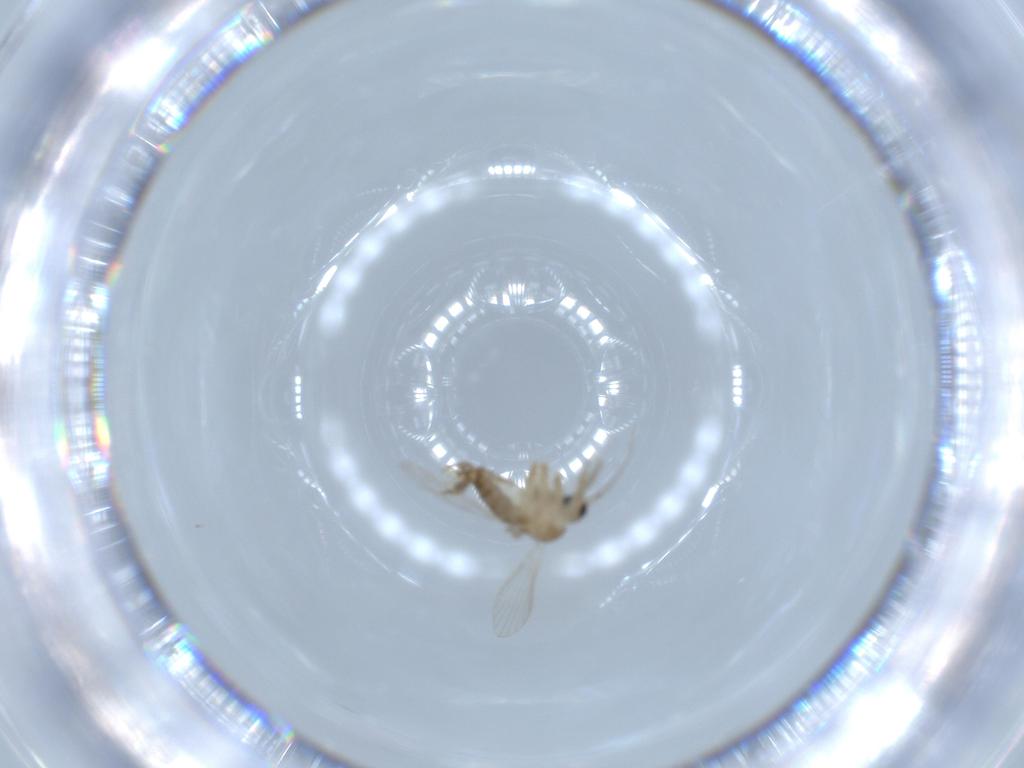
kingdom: Animalia
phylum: Arthropoda
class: Insecta
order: Diptera
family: Psychodidae
